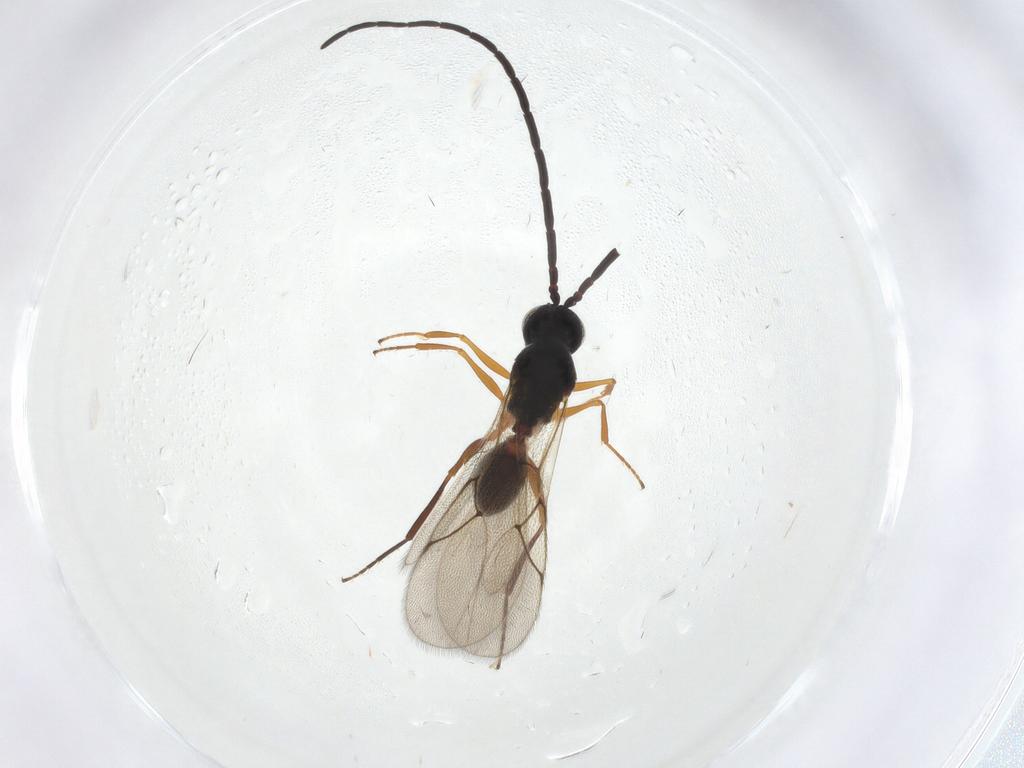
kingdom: Animalia
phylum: Arthropoda
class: Insecta
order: Hymenoptera
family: Figitidae
